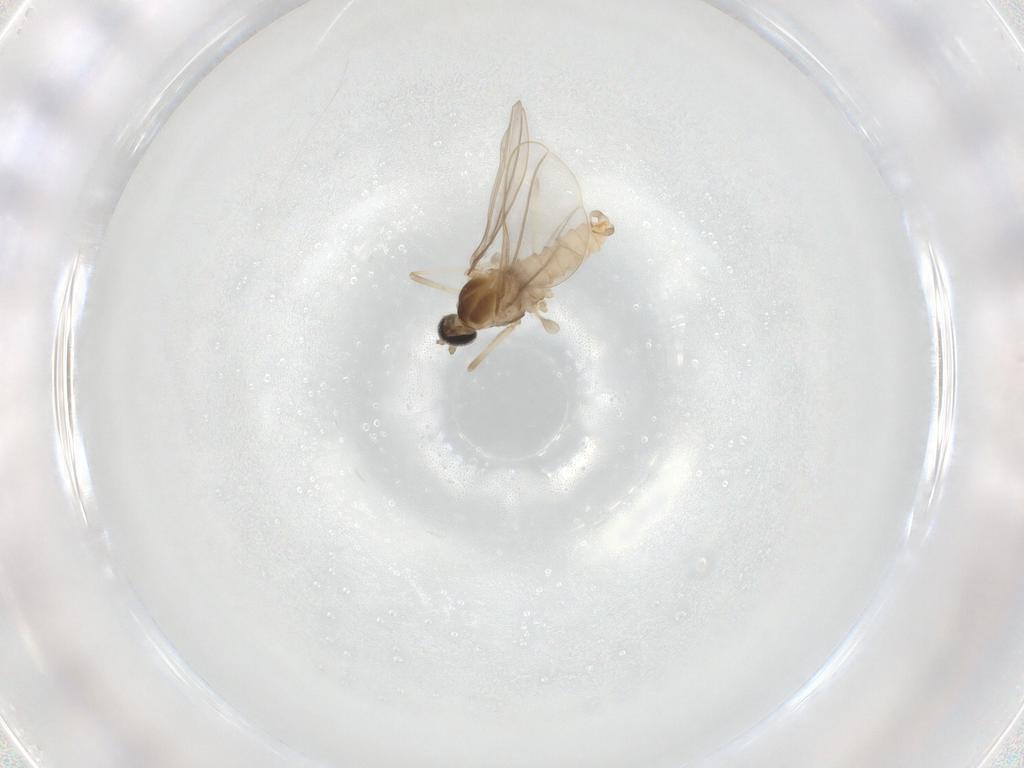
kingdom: Animalia
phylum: Arthropoda
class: Insecta
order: Diptera
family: Cecidomyiidae
